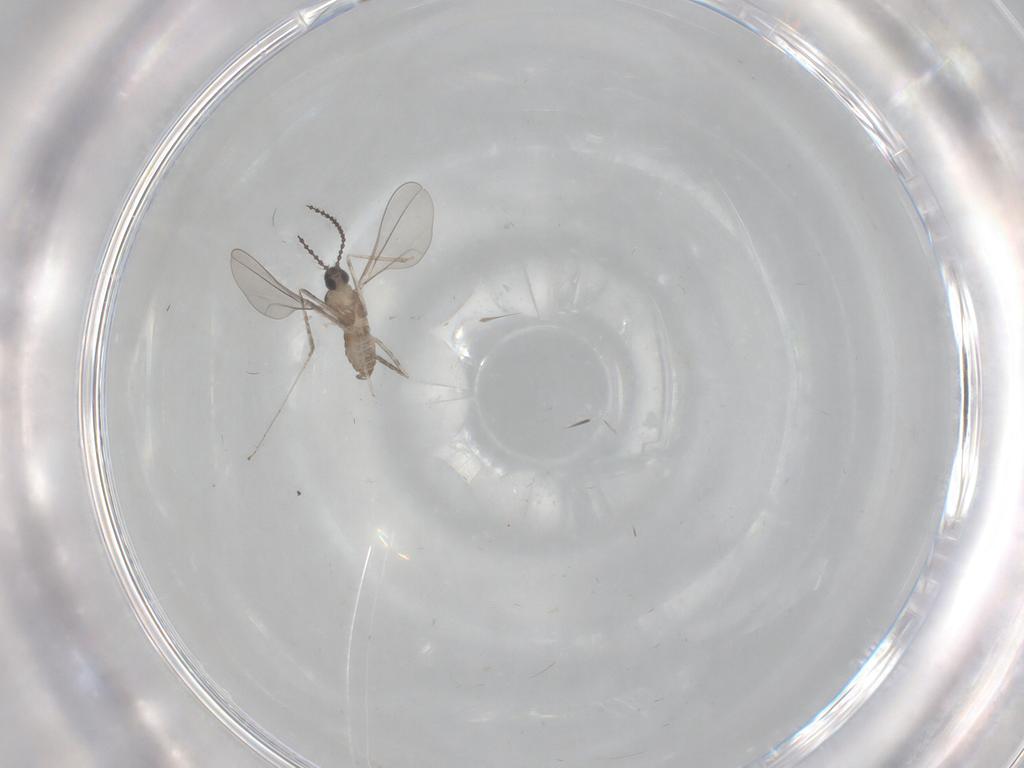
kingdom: Animalia
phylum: Arthropoda
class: Insecta
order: Diptera
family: Cecidomyiidae
